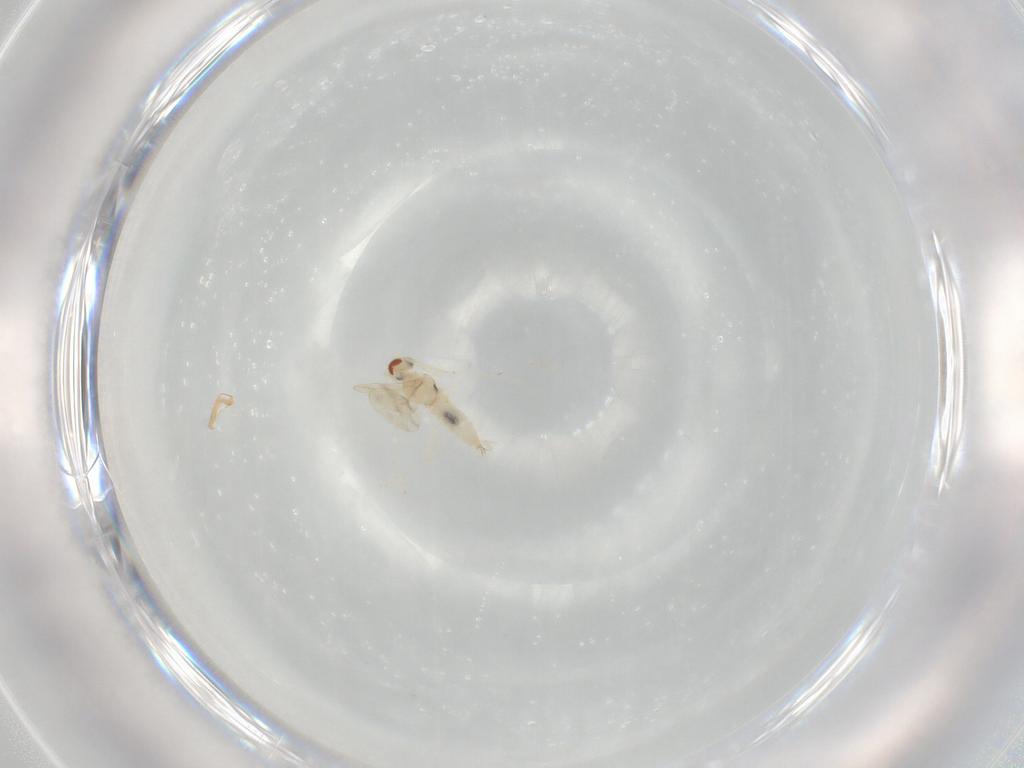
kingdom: Animalia
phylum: Arthropoda
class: Insecta
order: Diptera
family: Cecidomyiidae
